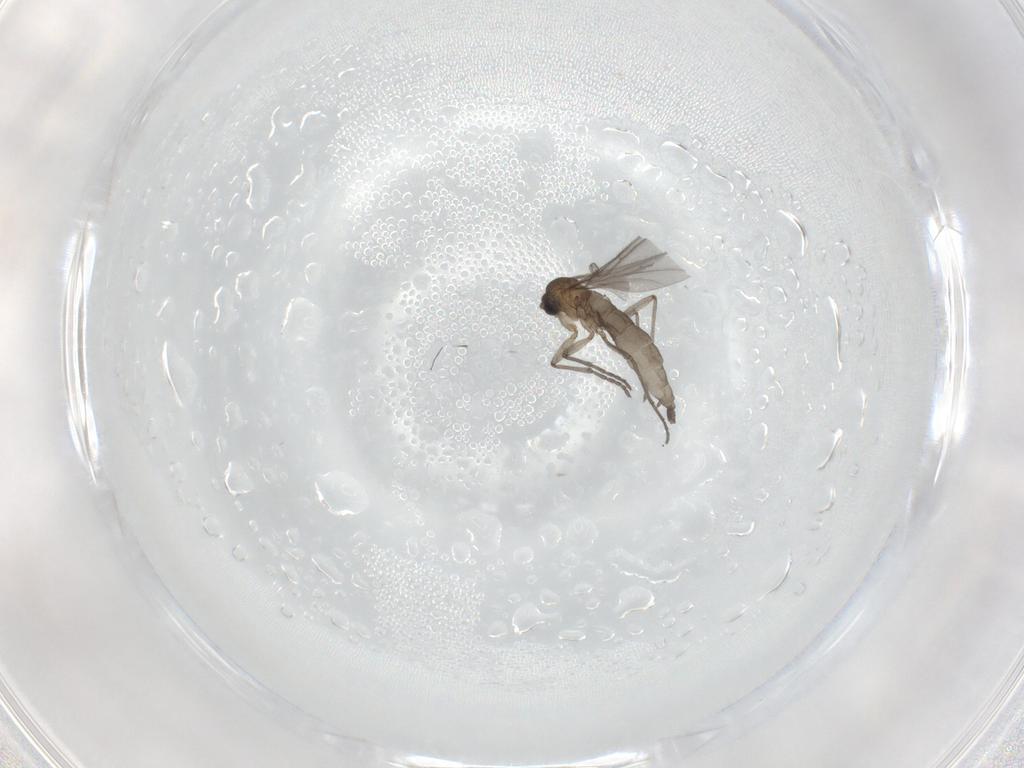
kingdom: Animalia
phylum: Arthropoda
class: Insecta
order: Diptera
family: Sciaridae
